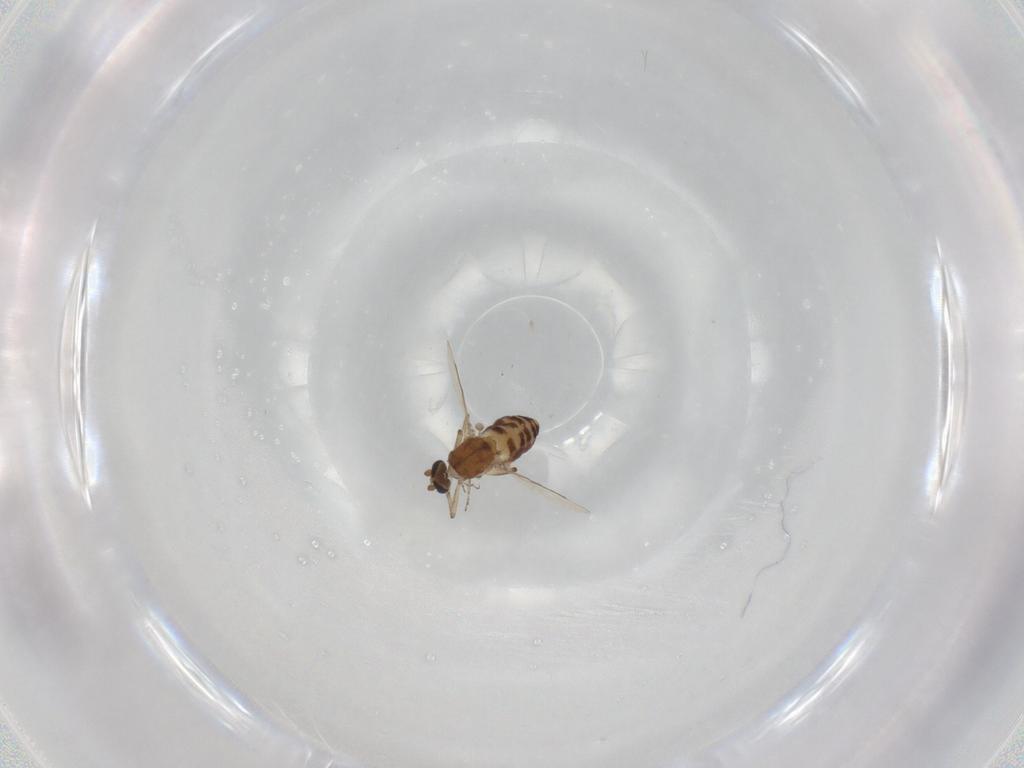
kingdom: Animalia
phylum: Arthropoda
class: Insecta
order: Diptera
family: Ceratopogonidae
